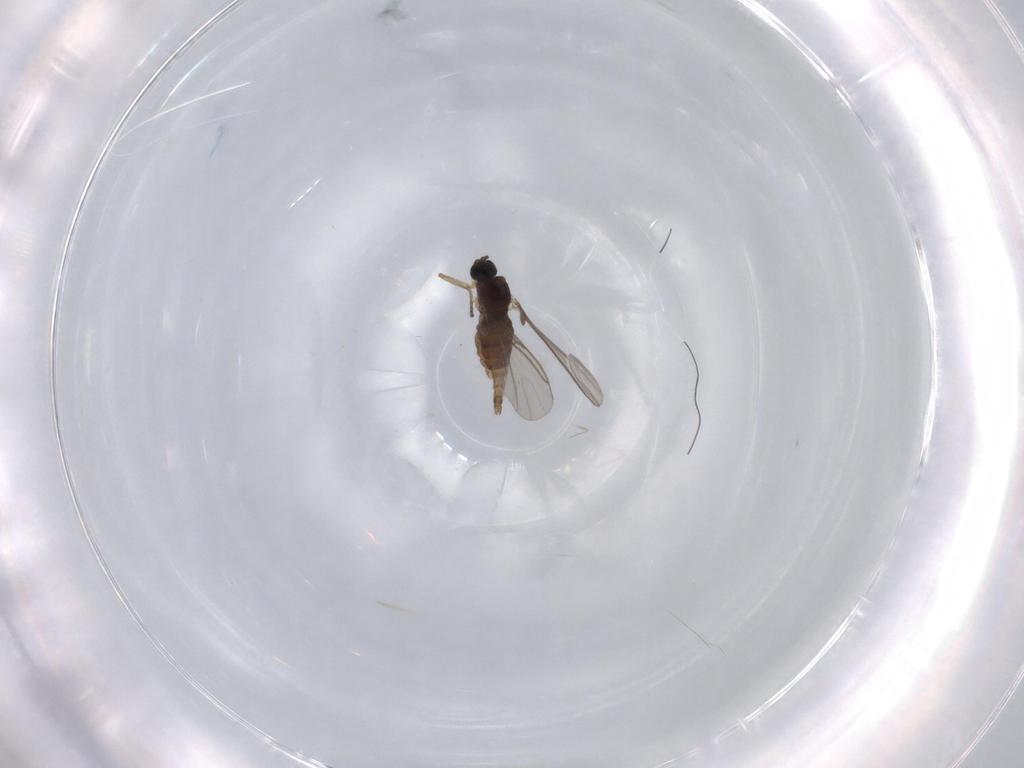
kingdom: Animalia
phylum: Arthropoda
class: Insecta
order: Diptera
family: Sciaridae
